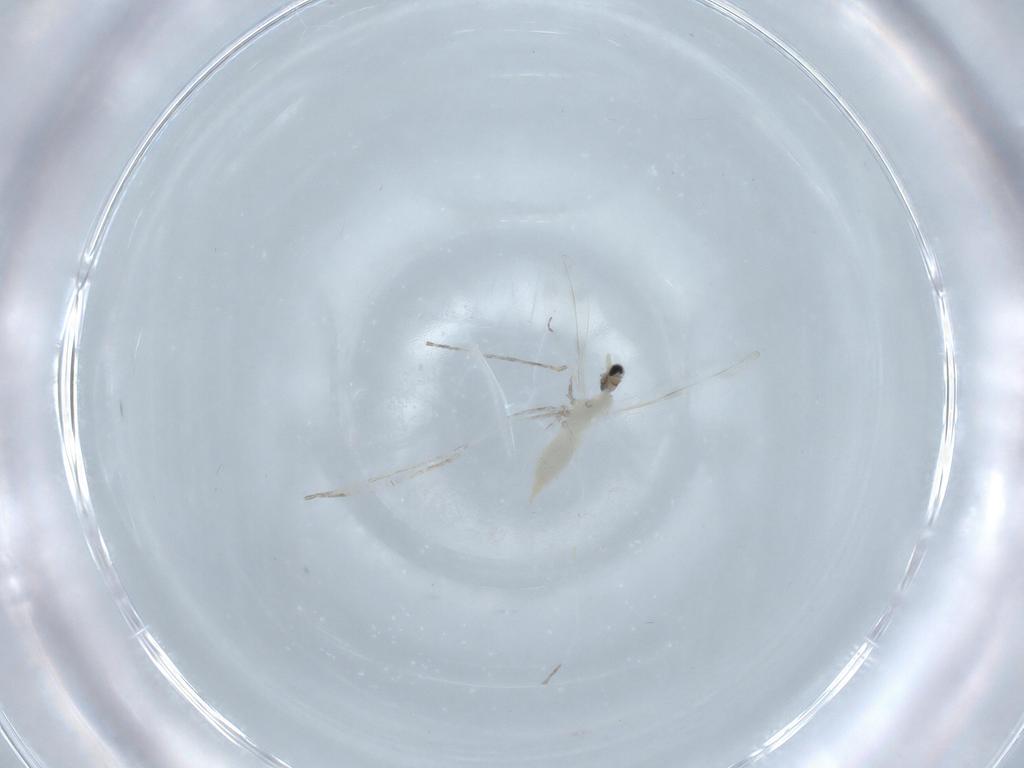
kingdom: Animalia
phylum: Arthropoda
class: Insecta
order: Diptera
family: Cecidomyiidae
